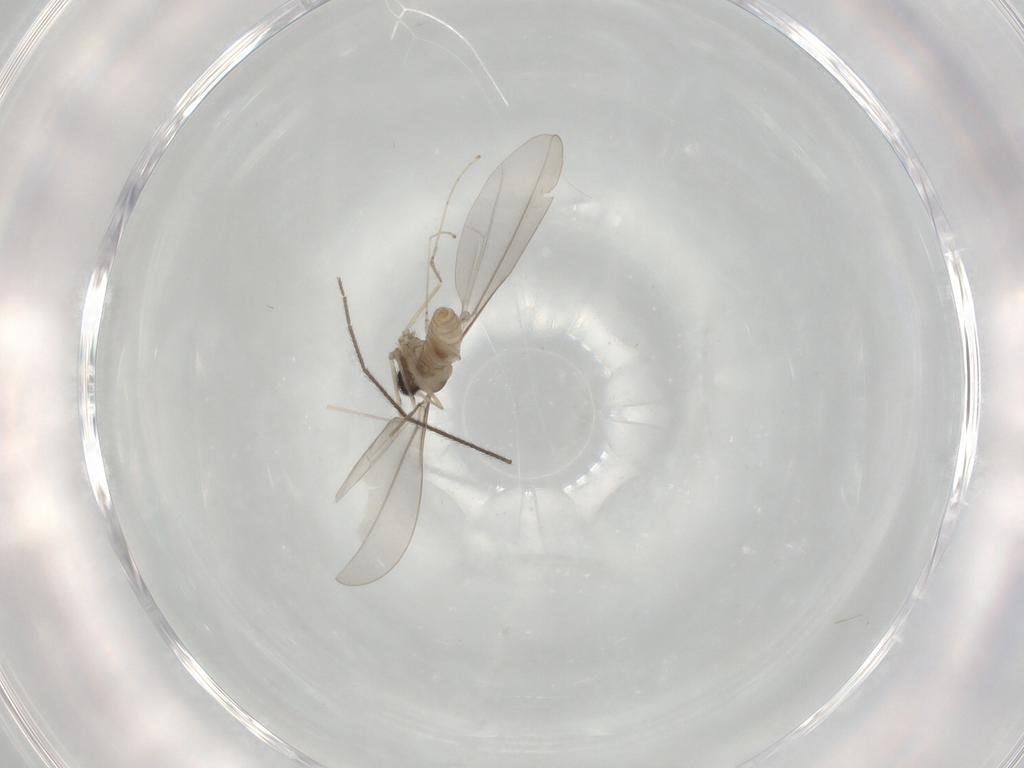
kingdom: Animalia
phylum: Arthropoda
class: Insecta
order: Diptera
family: Cecidomyiidae
